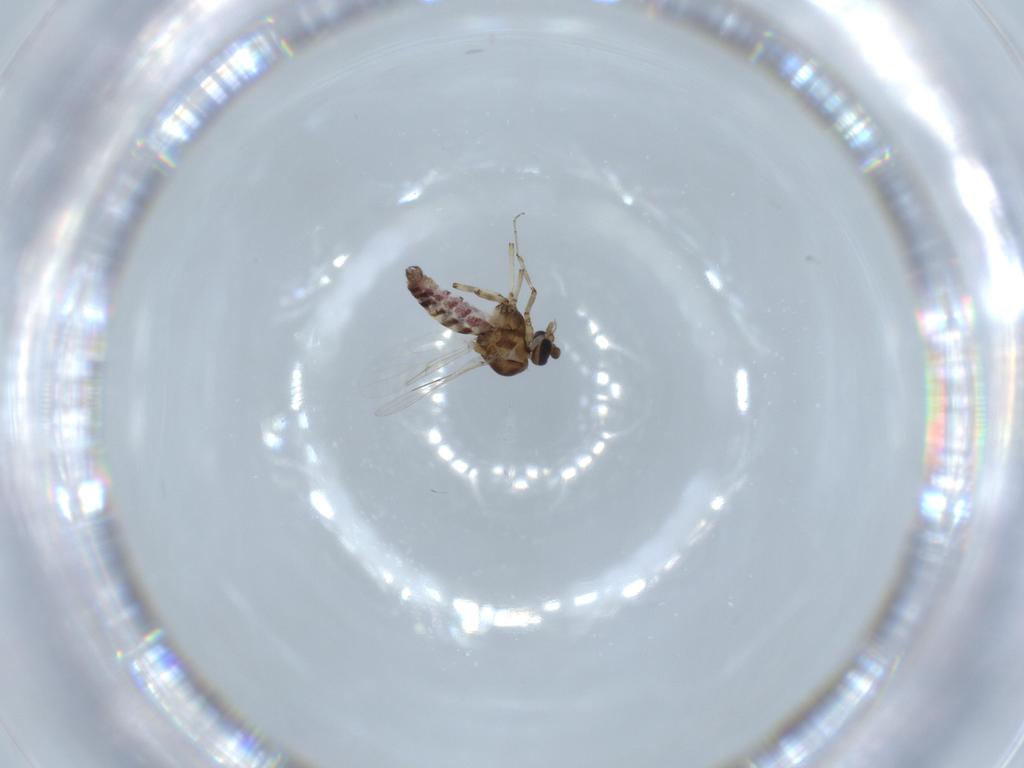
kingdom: Animalia
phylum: Arthropoda
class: Insecta
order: Diptera
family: Ceratopogonidae
